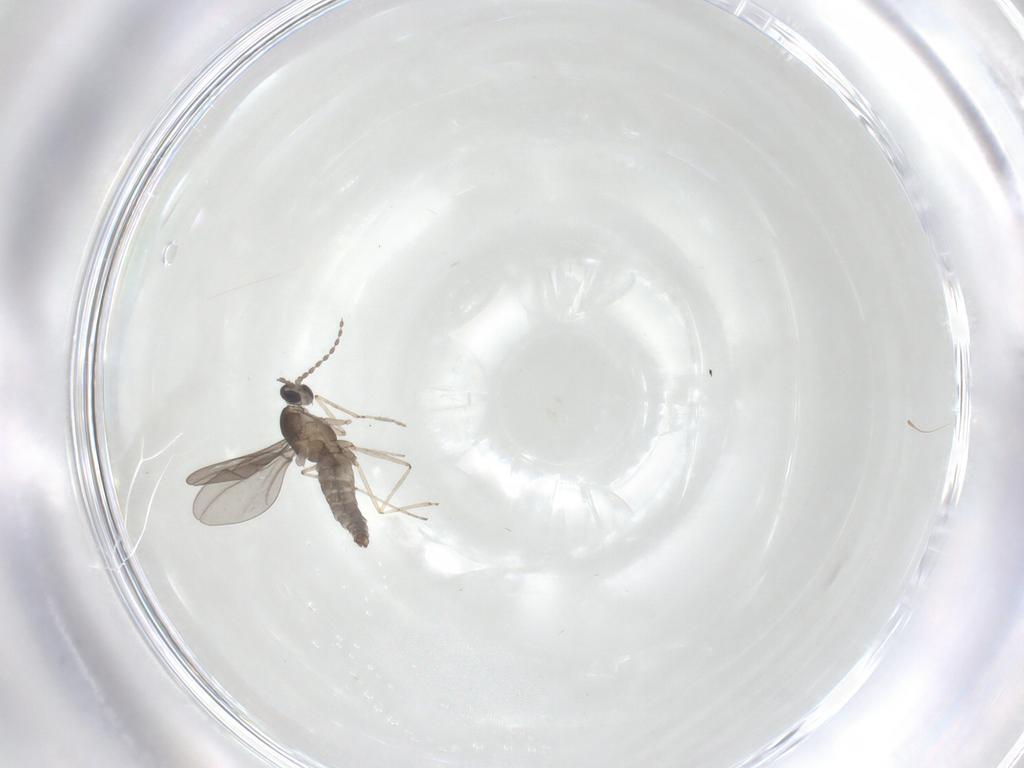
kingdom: Animalia
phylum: Arthropoda
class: Insecta
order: Diptera
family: Cecidomyiidae
